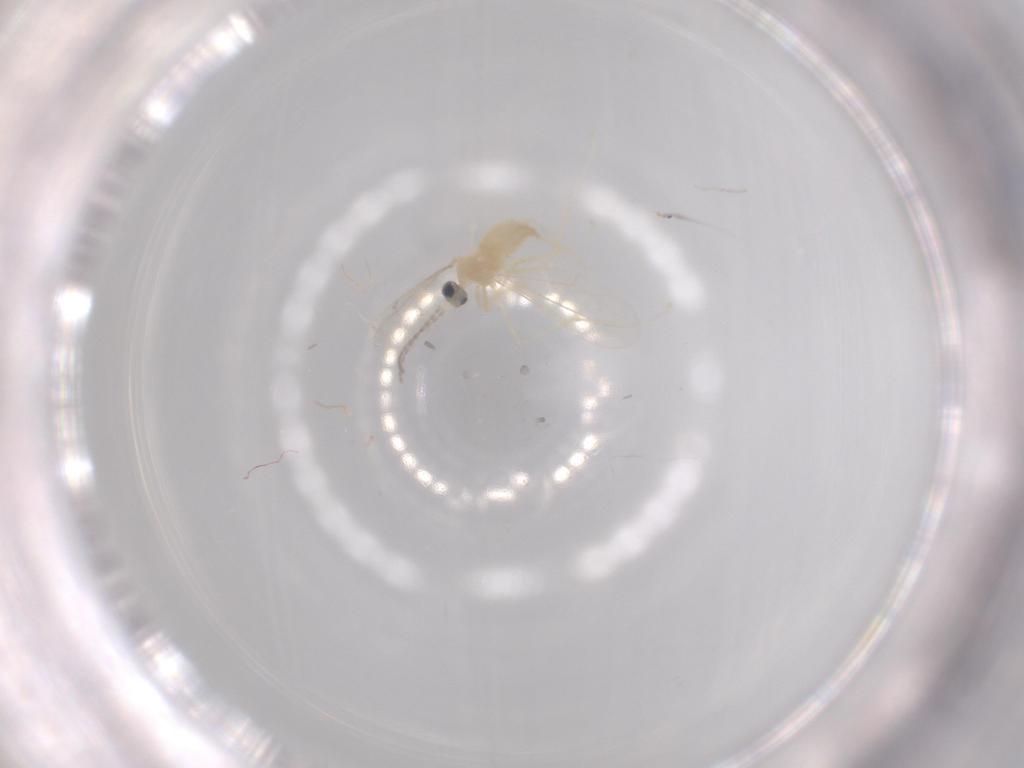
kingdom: Animalia
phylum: Arthropoda
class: Insecta
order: Diptera
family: Cecidomyiidae
